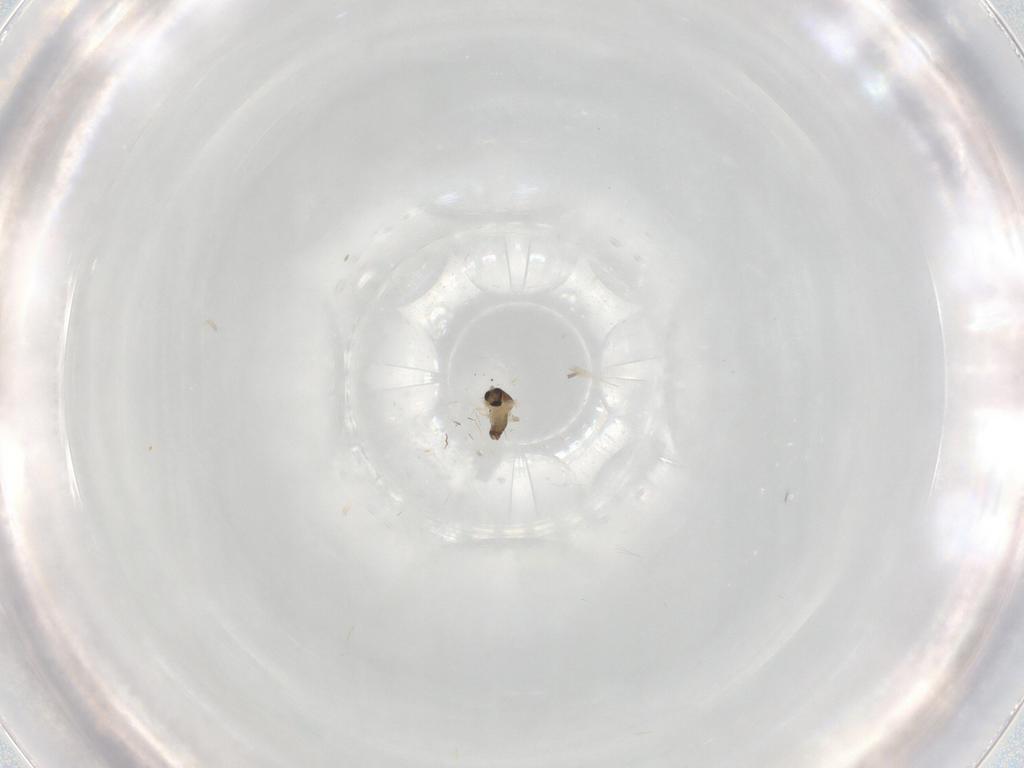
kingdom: Animalia
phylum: Arthropoda
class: Insecta
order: Diptera
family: Cecidomyiidae
